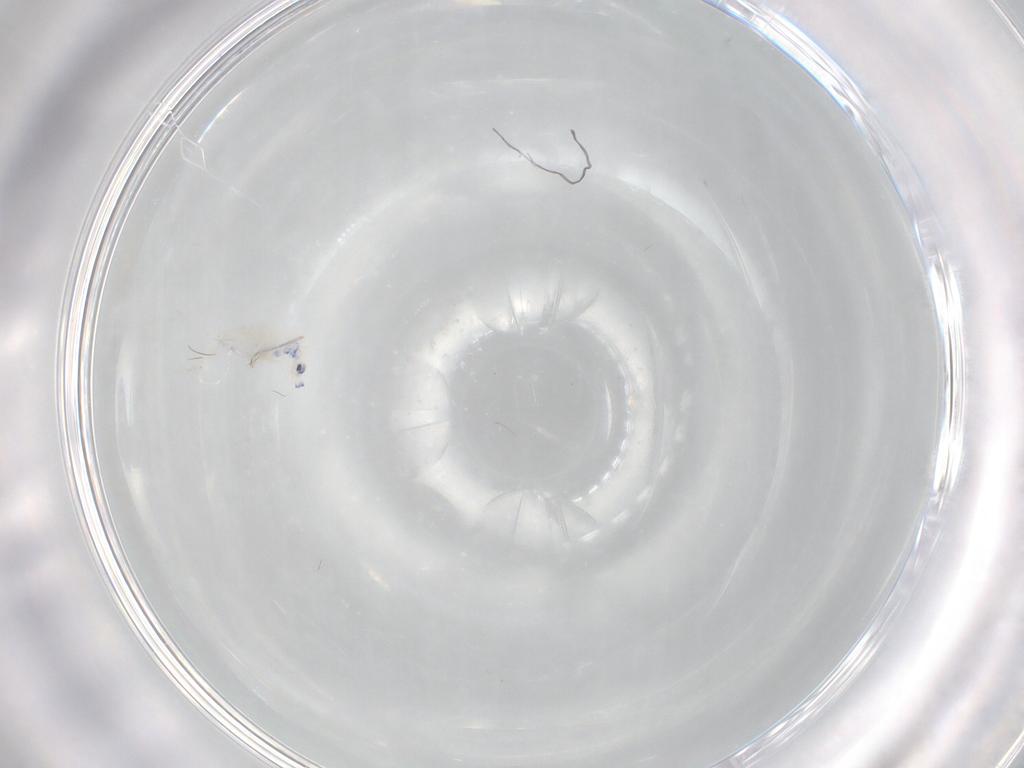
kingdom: Animalia
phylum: Arthropoda
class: Collembola
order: Entomobryomorpha
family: Entomobryidae
